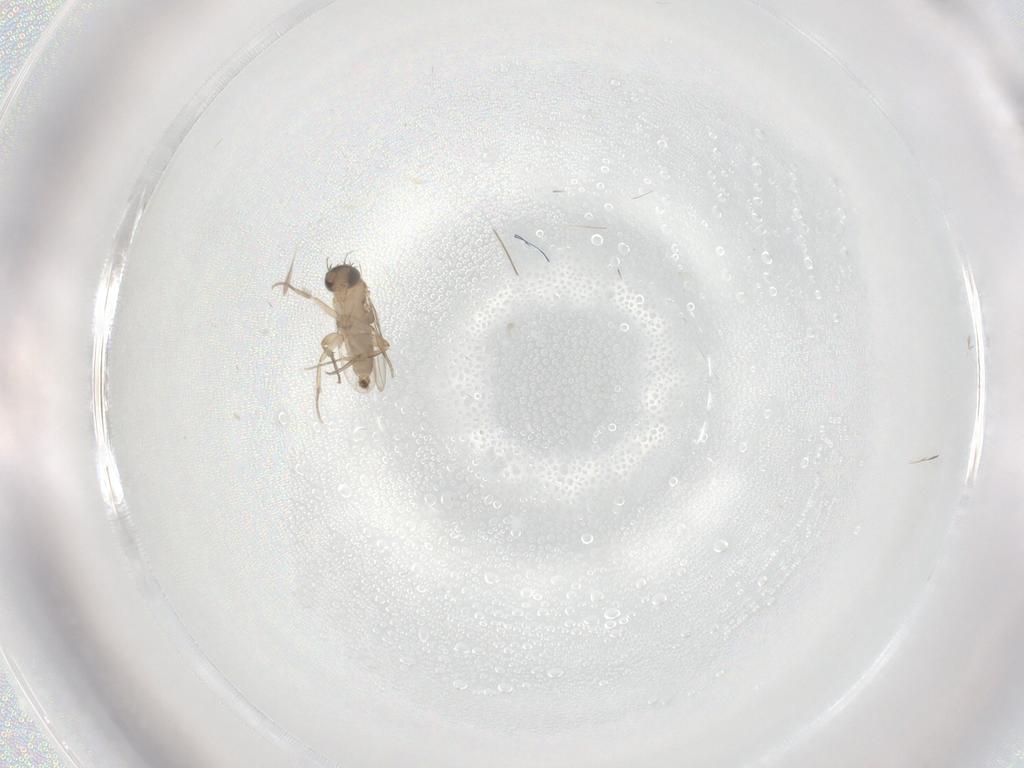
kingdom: Animalia
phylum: Arthropoda
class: Insecta
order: Diptera
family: Phoridae
